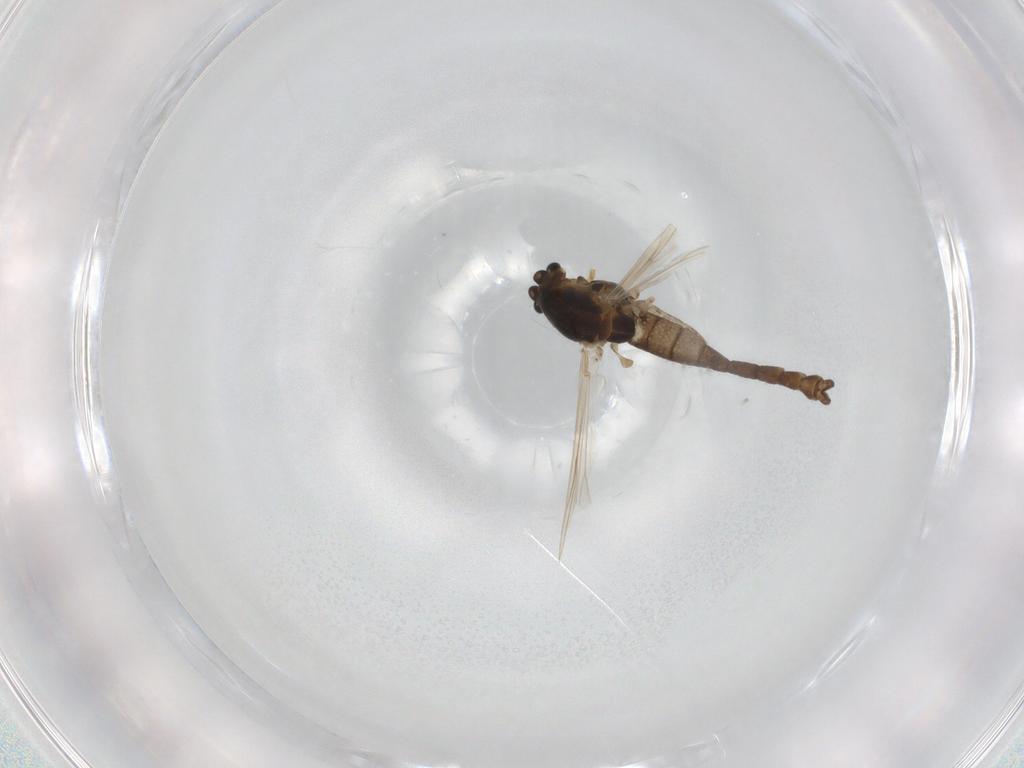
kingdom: Animalia
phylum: Arthropoda
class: Insecta
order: Diptera
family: Chironomidae
